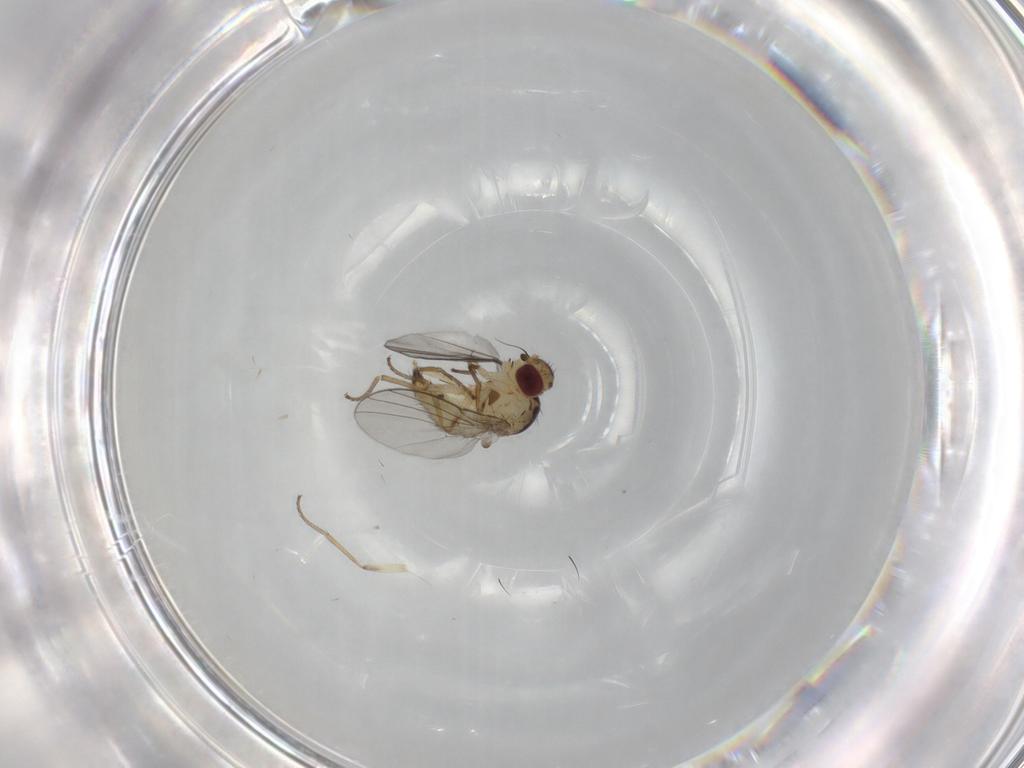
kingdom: Animalia
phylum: Arthropoda
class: Insecta
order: Diptera
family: Agromyzidae
